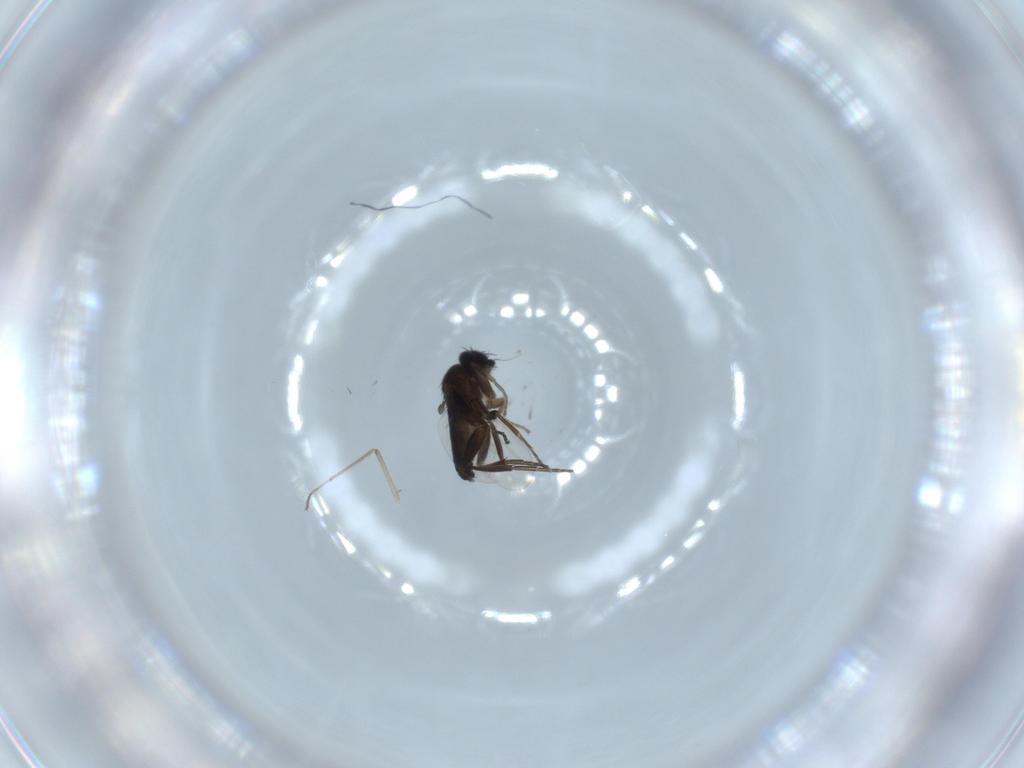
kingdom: Animalia
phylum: Arthropoda
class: Insecta
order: Diptera
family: Phoridae
